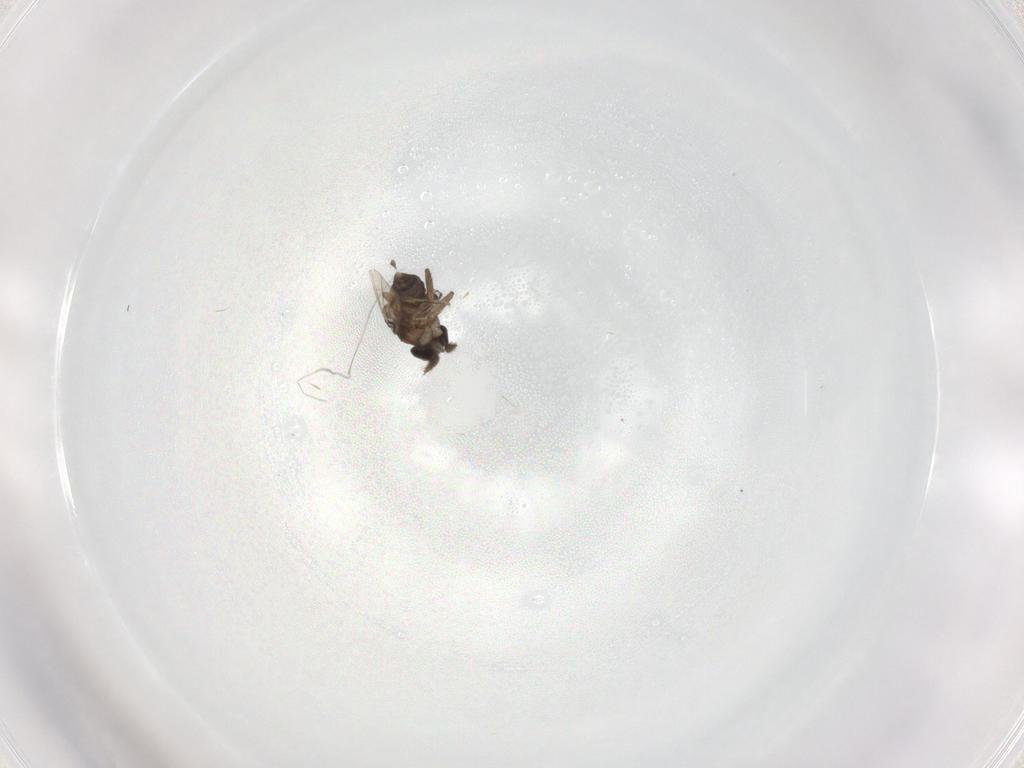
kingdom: Animalia
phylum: Arthropoda
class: Insecta
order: Diptera
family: Phoridae
